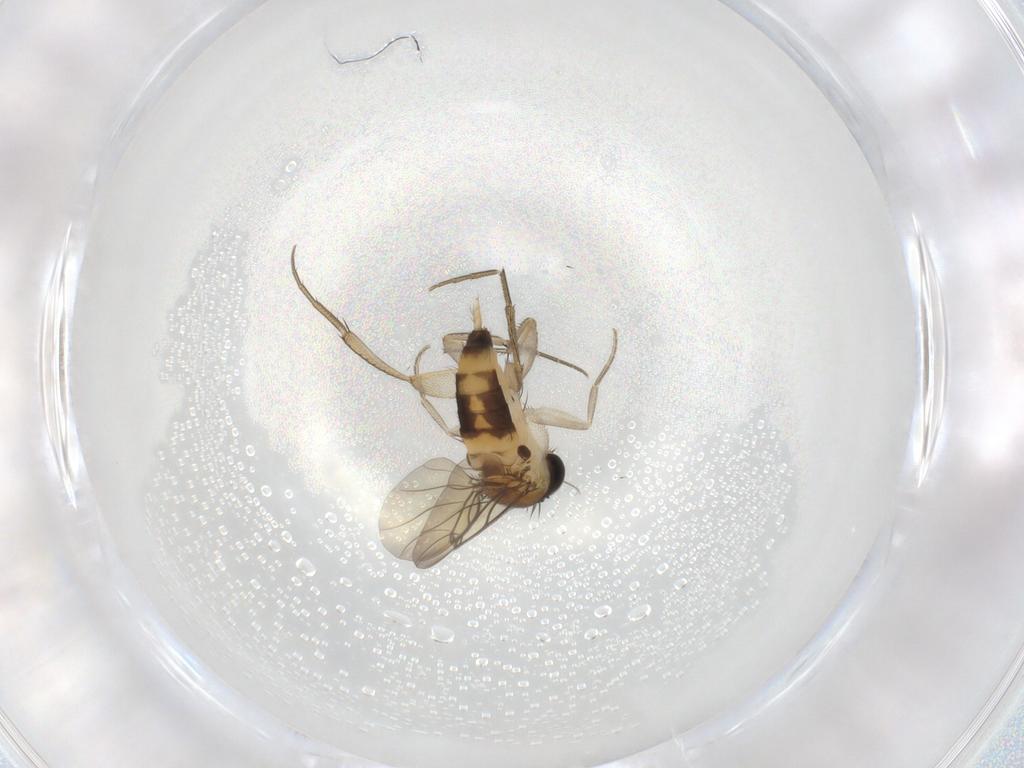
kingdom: Animalia
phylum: Arthropoda
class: Insecta
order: Diptera
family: Phoridae
